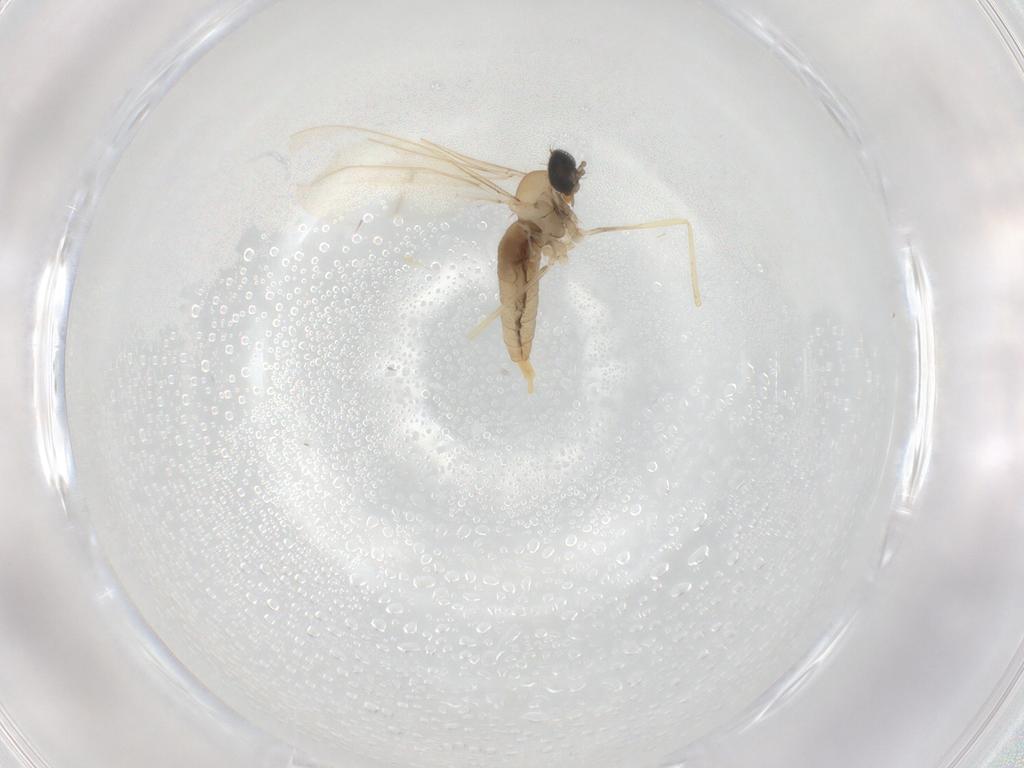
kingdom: Animalia
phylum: Arthropoda
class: Insecta
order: Diptera
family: Cecidomyiidae
